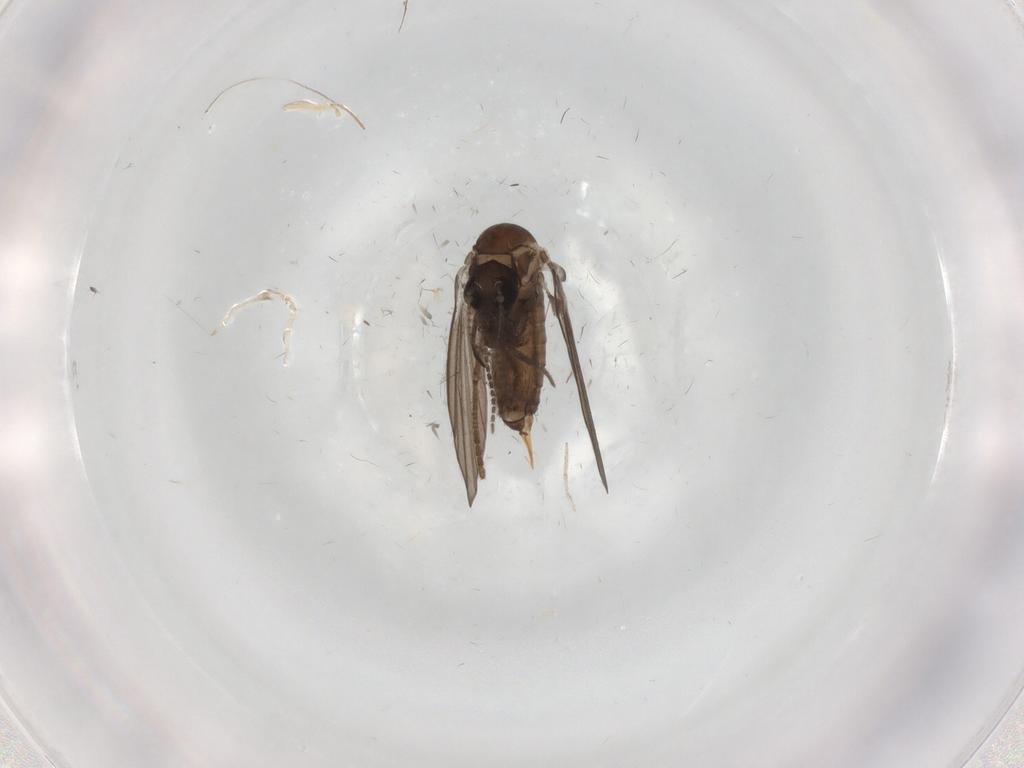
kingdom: Animalia
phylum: Arthropoda
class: Insecta
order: Diptera
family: Psychodidae
